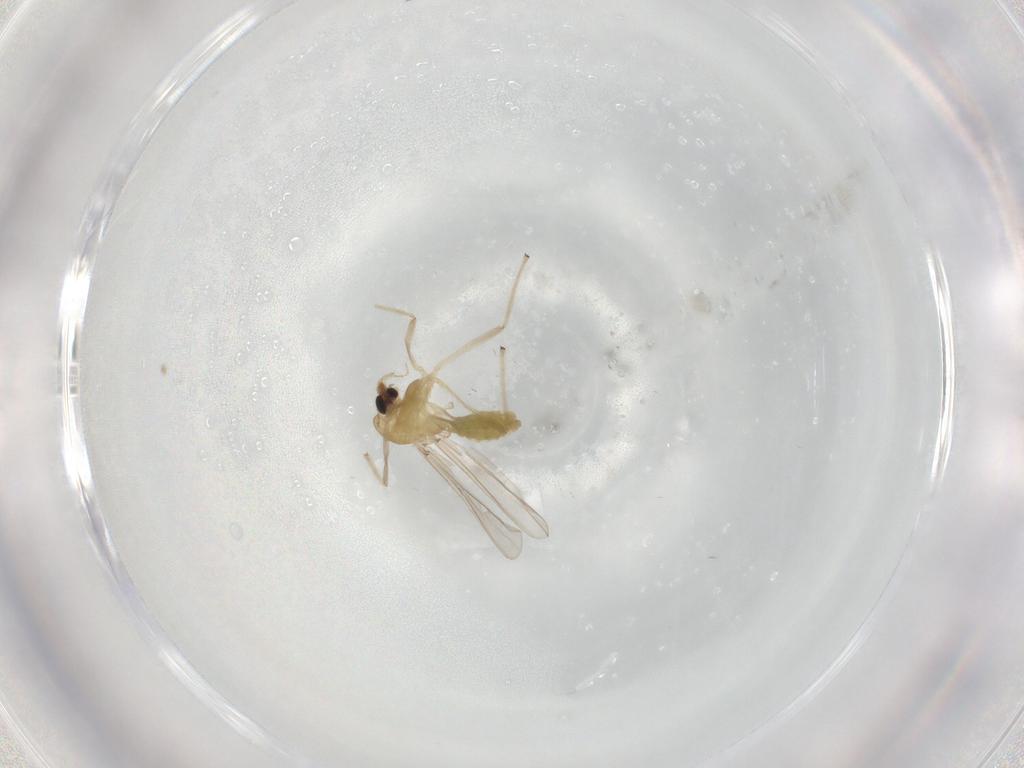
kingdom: Animalia
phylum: Arthropoda
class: Insecta
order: Diptera
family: Chironomidae
